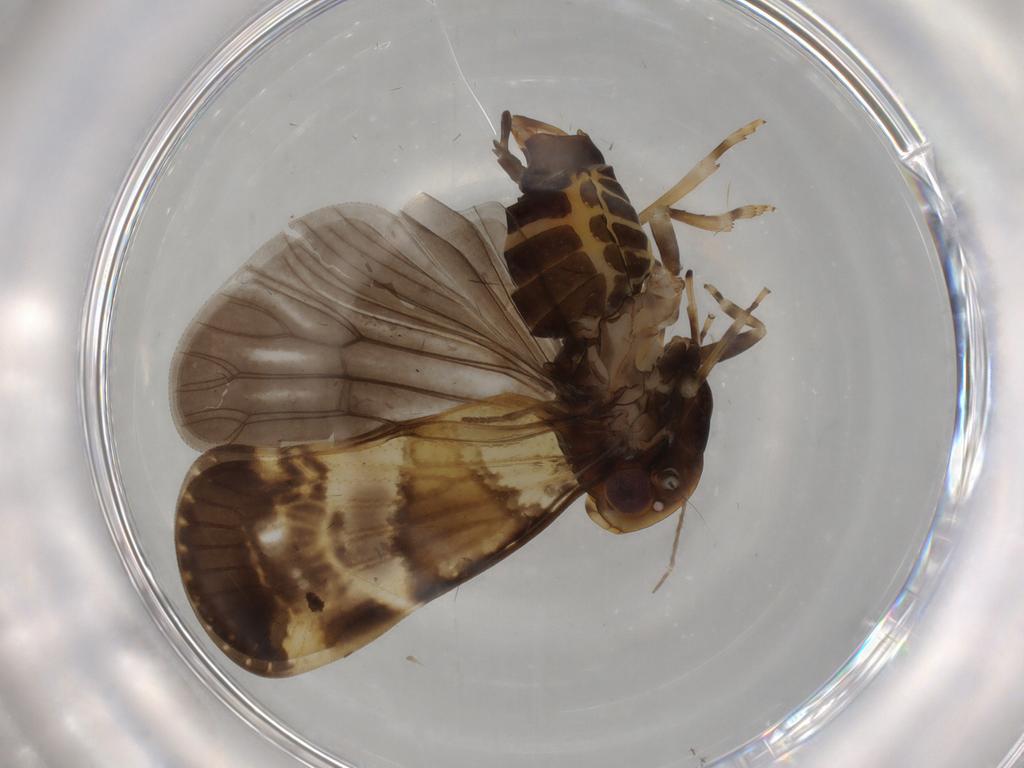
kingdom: Animalia
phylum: Arthropoda
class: Insecta
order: Hemiptera
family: Cixiidae
